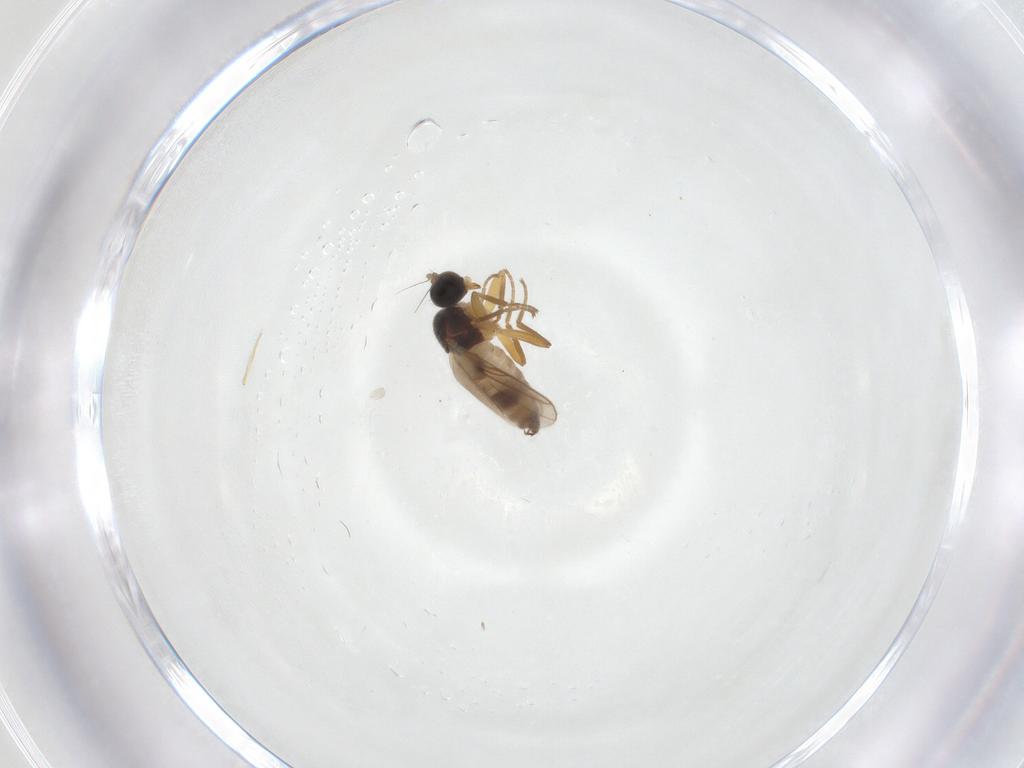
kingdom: Animalia
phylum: Arthropoda
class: Insecta
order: Diptera
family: Hybotidae
